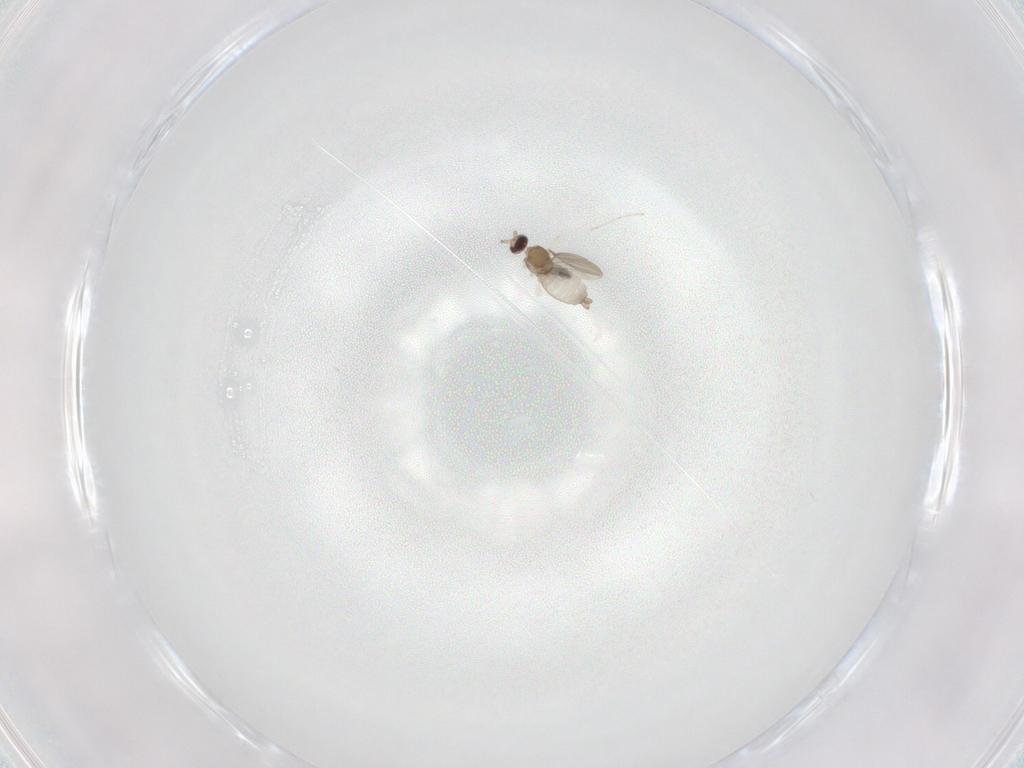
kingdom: Animalia
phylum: Arthropoda
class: Insecta
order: Diptera
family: Cecidomyiidae
